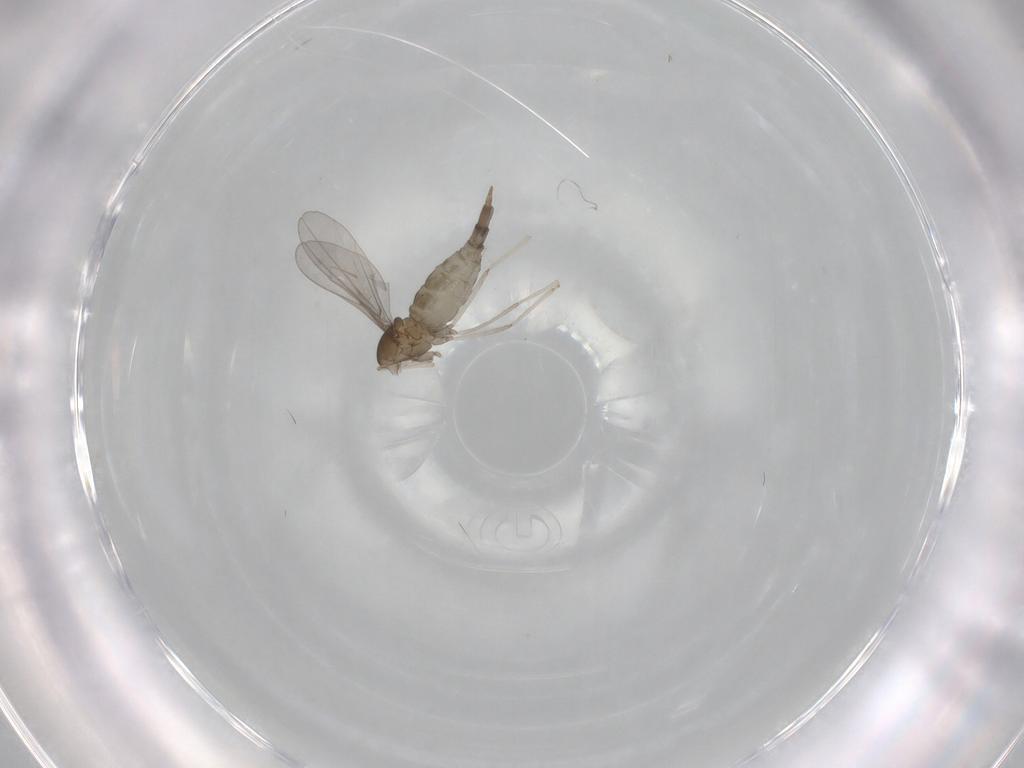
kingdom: Animalia
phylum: Arthropoda
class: Insecta
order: Diptera
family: Cecidomyiidae
